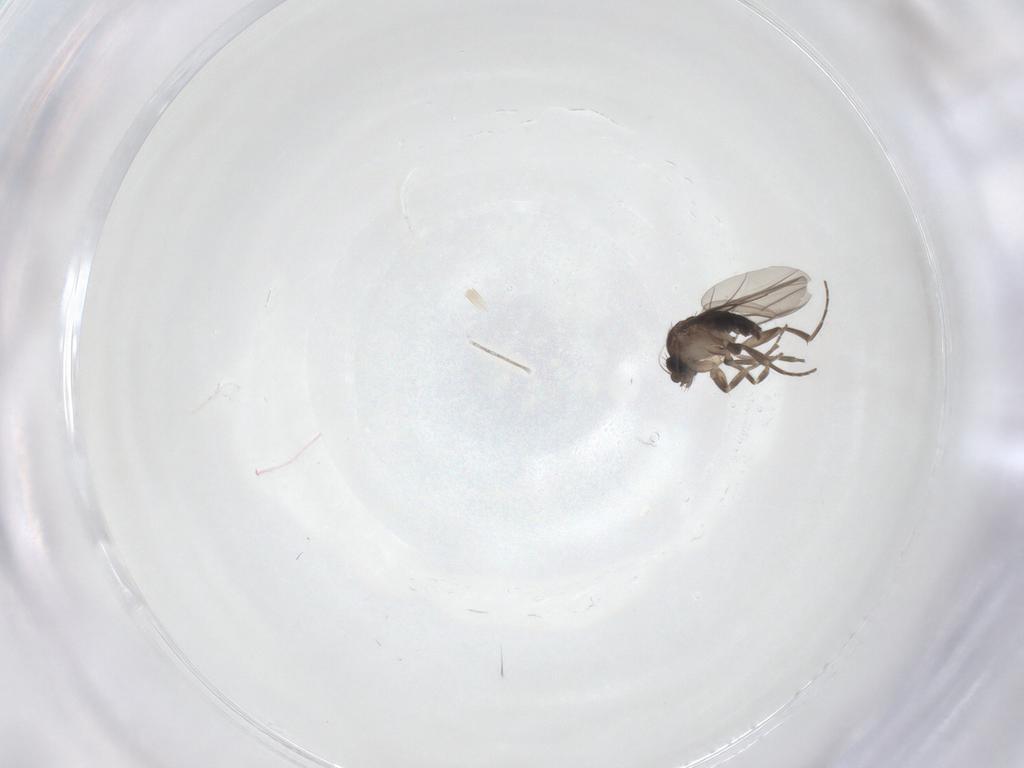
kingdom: Animalia
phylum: Arthropoda
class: Insecta
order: Diptera
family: Phoridae
